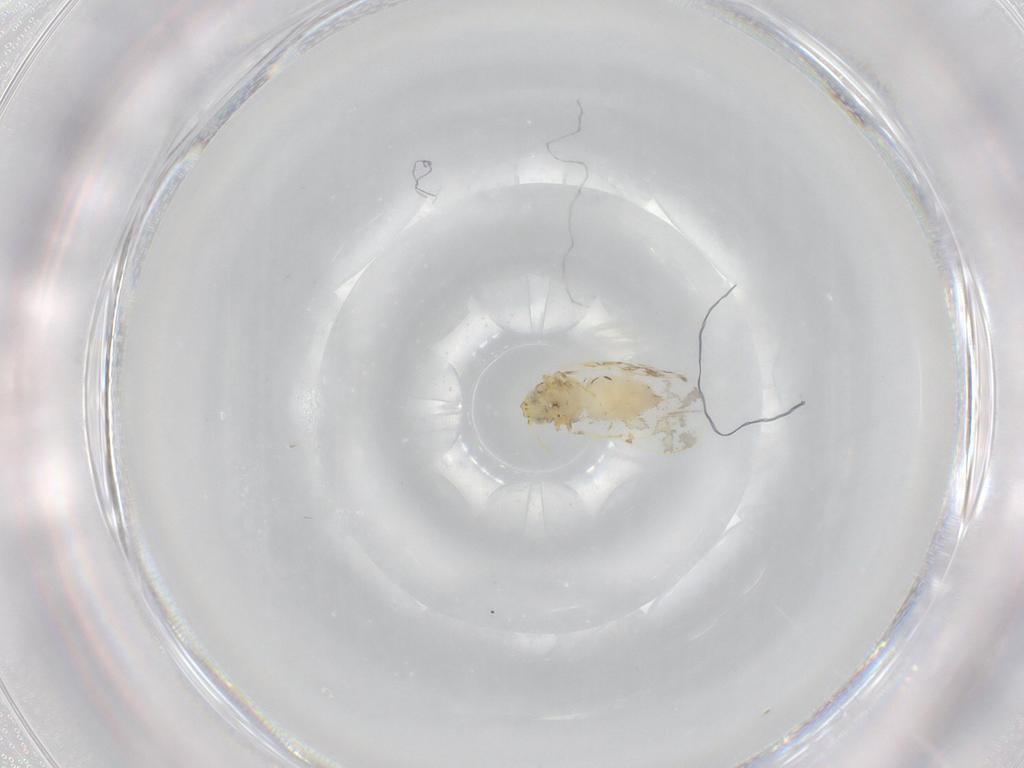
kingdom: Animalia
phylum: Arthropoda
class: Insecta
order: Hemiptera
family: Aleyrodidae
